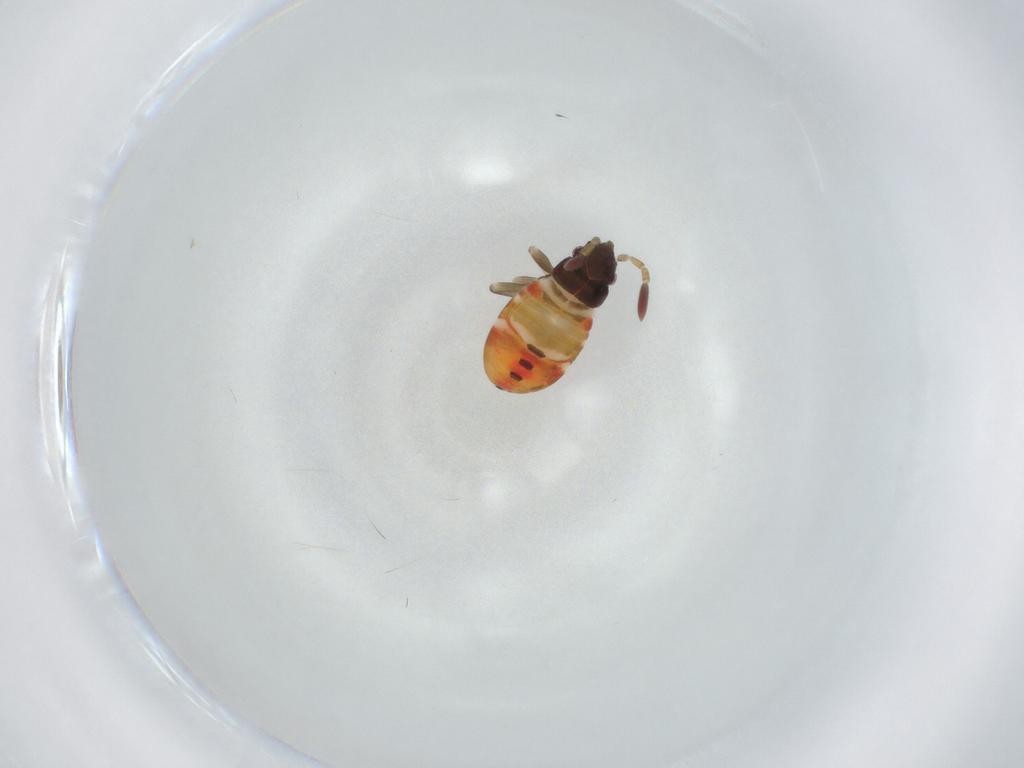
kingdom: Animalia
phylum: Arthropoda
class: Insecta
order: Hemiptera
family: Rhyparochromidae
